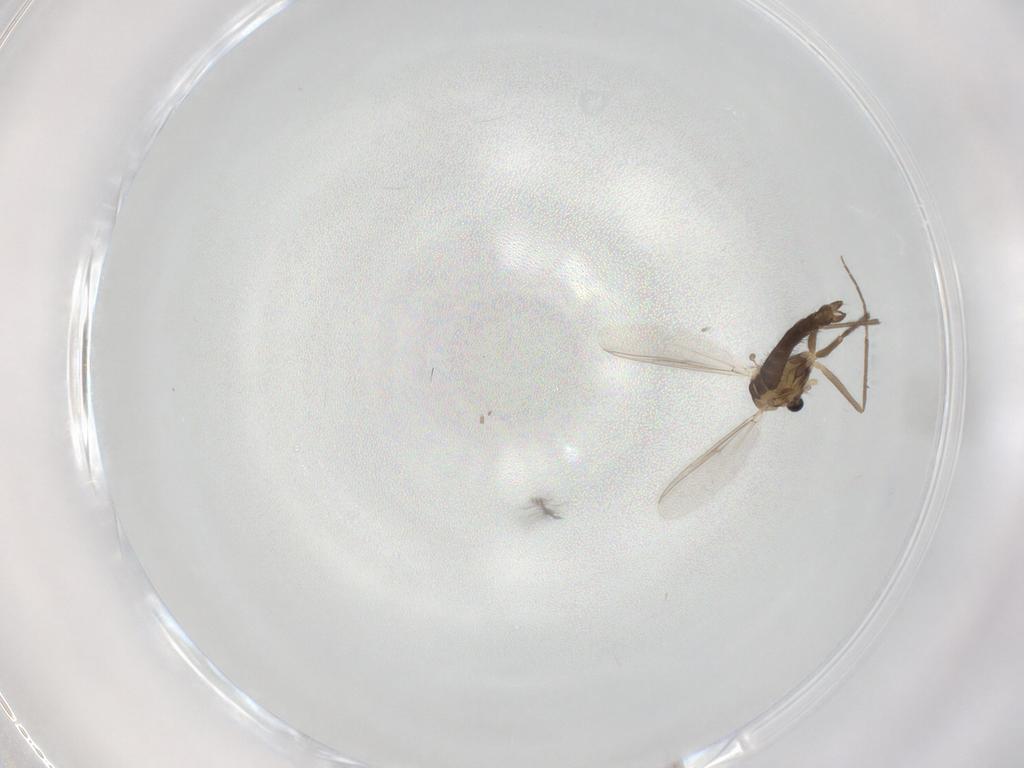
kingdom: Animalia
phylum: Arthropoda
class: Insecta
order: Diptera
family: Chironomidae
